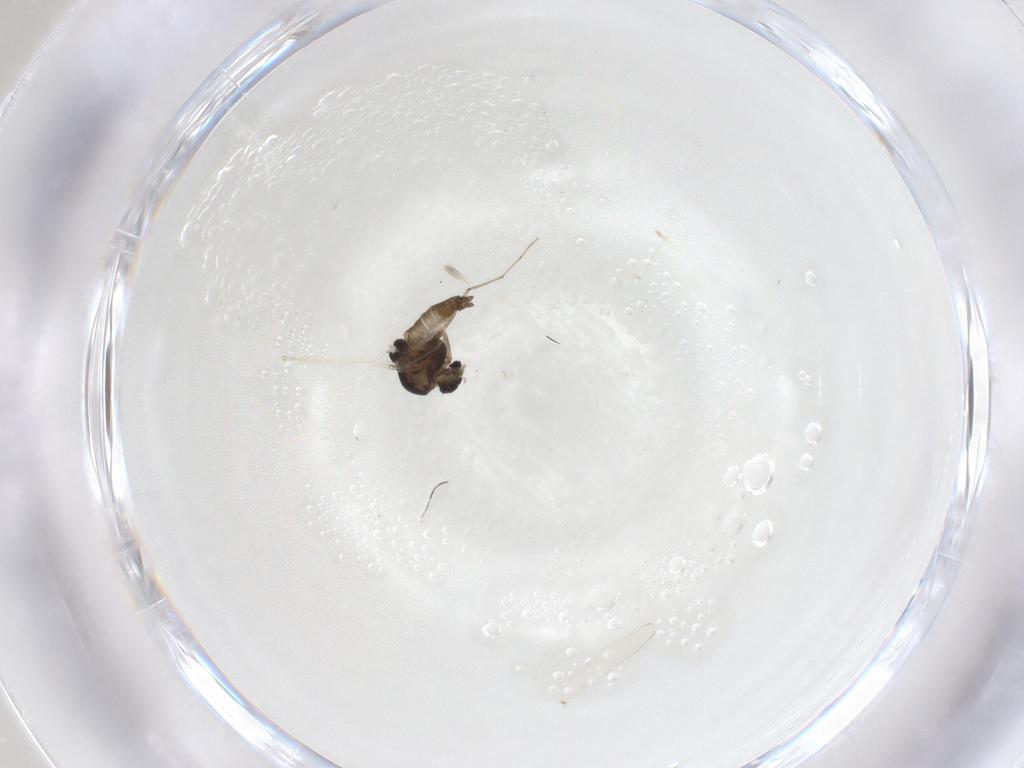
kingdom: Animalia
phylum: Arthropoda
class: Insecta
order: Diptera
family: Chironomidae
